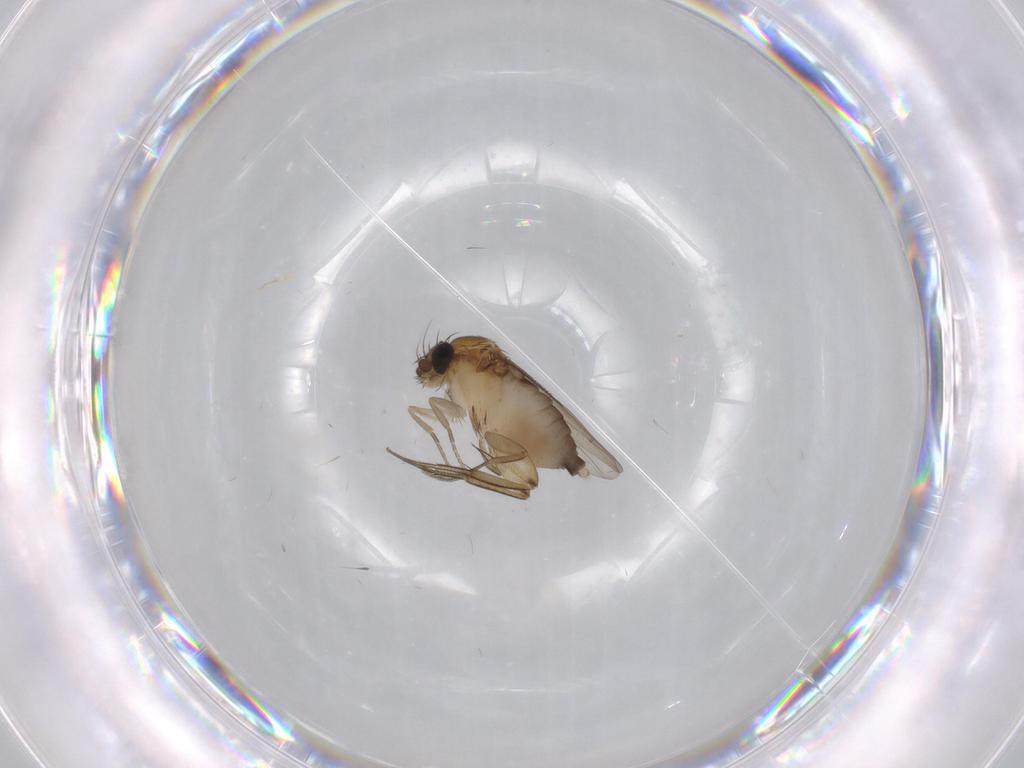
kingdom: Animalia
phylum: Arthropoda
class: Insecta
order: Diptera
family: Phoridae
